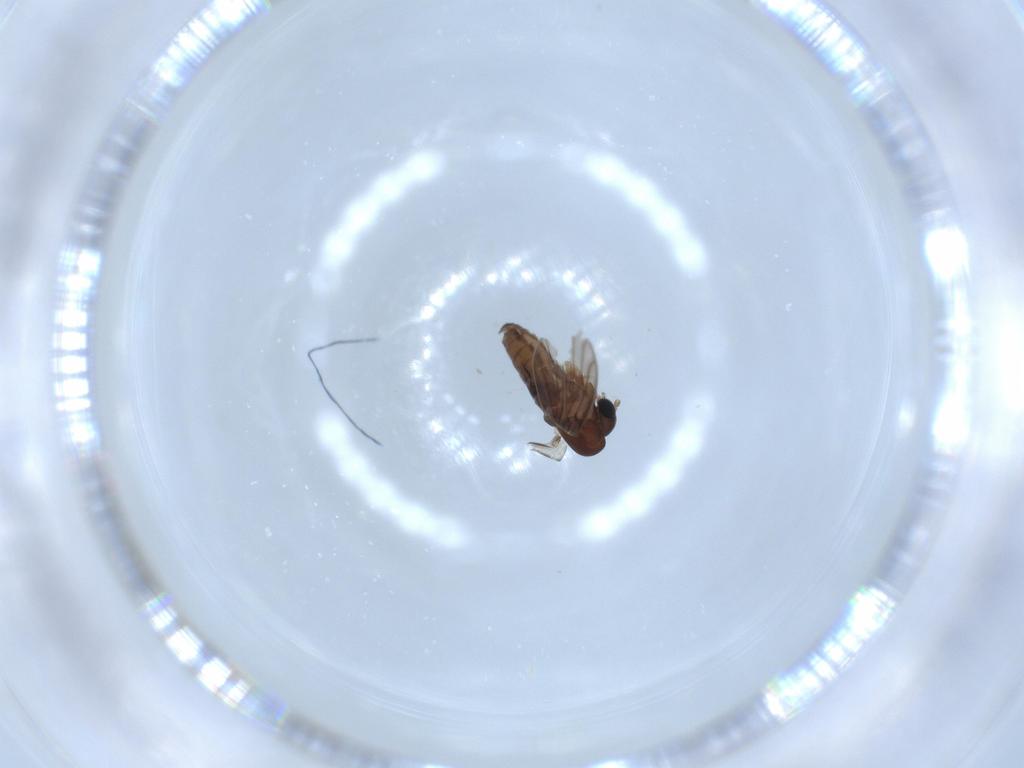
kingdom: Animalia
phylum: Arthropoda
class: Insecta
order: Diptera
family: Psychodidae
